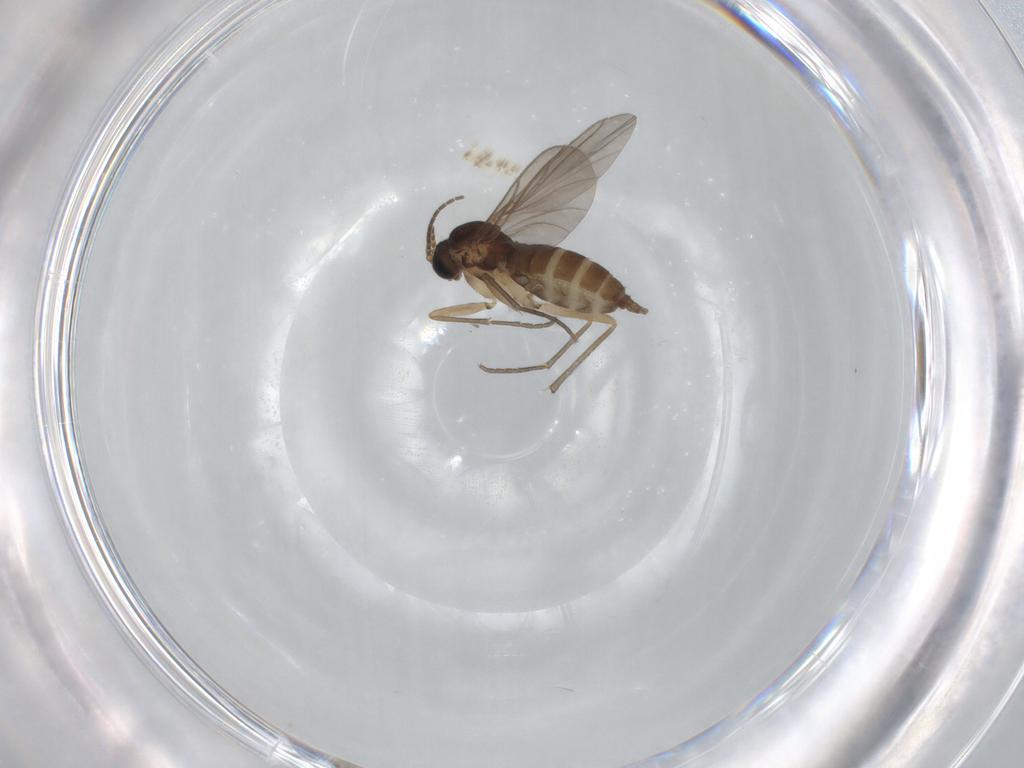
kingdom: Animalia
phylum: Arthropoda
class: Insecta
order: Diptera
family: Sciaridae
